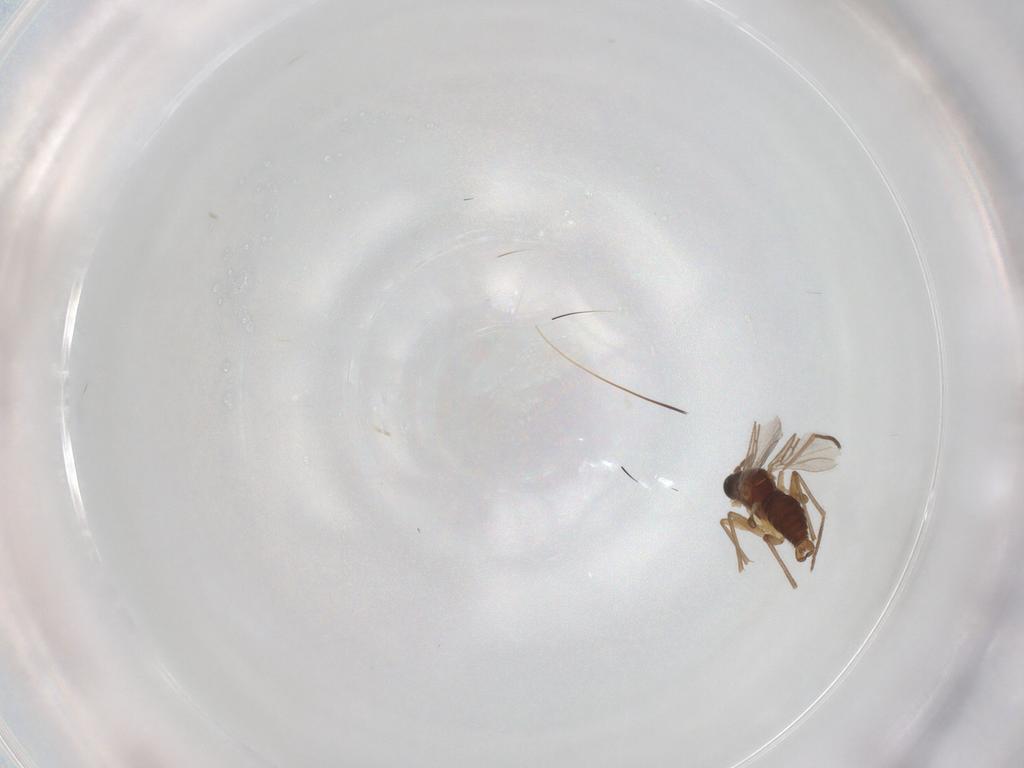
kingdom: Animalia
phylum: Arthropoda
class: Insecta
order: Diptera
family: Sciaridae
